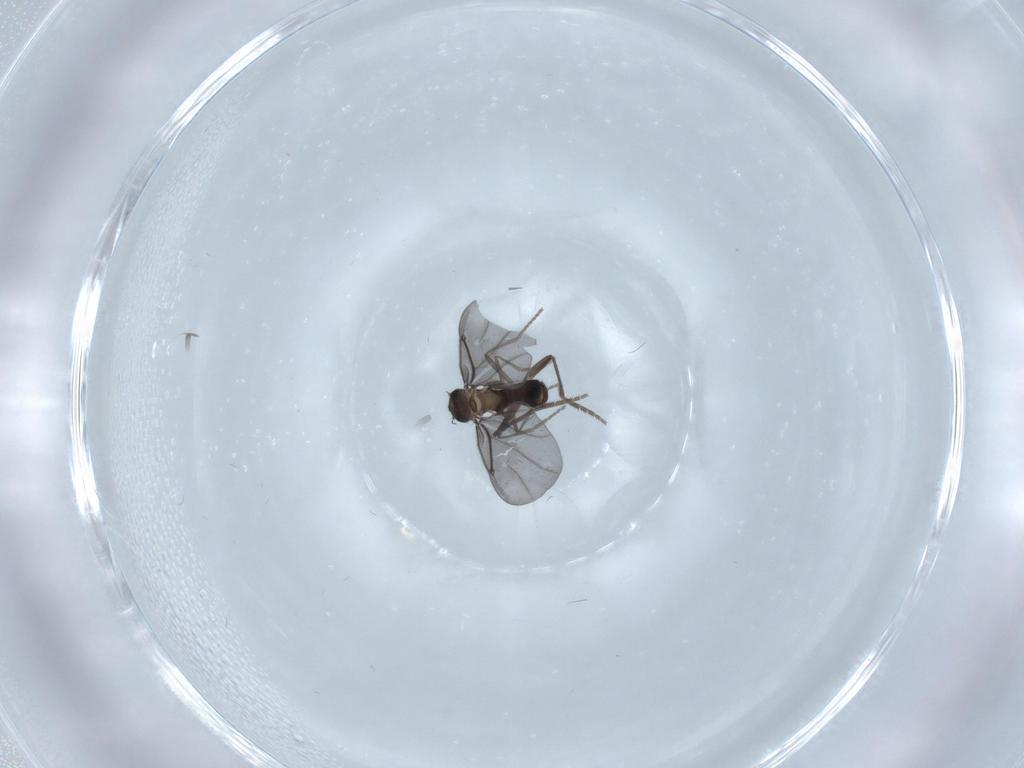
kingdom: Animalia
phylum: Arthropoda
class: Insecta
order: Diptera
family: Phoridae
